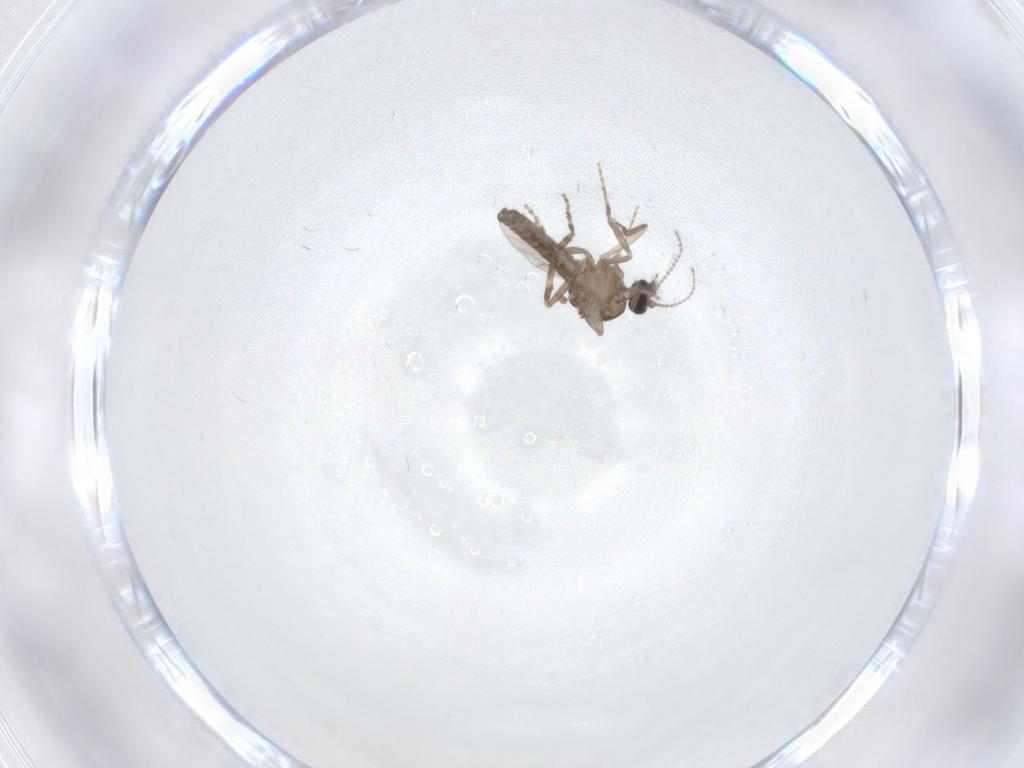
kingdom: Animalia
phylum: Arthropoda
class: Insecta
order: Diptera
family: Ceratopogonidae
